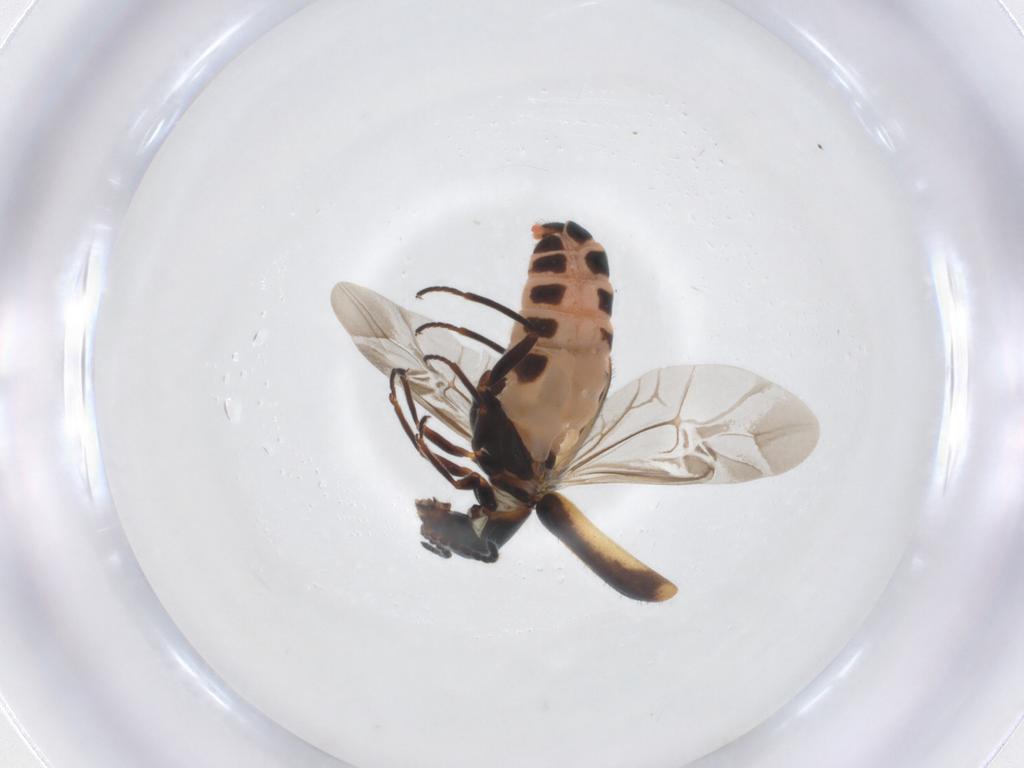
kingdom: Animalia
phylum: Arthropoda
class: Insecta
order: Coleoptera
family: Melyridae
